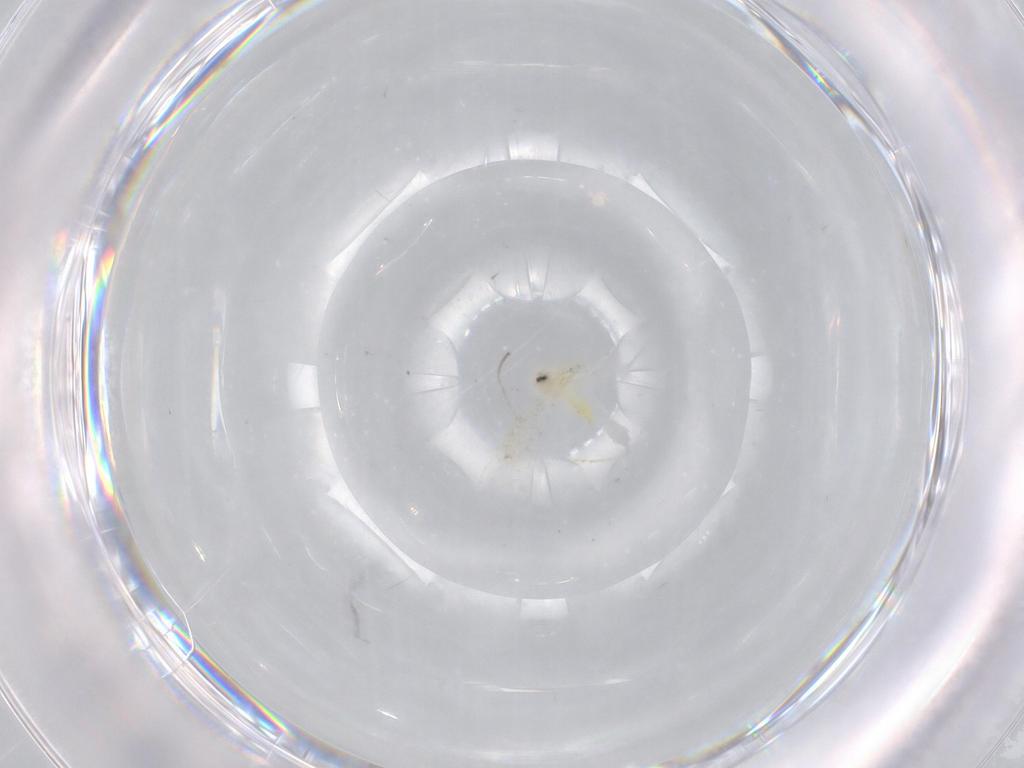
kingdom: Animalia
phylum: Arthropoda
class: Insecta
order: Hemiptera
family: Aleyrodidae
